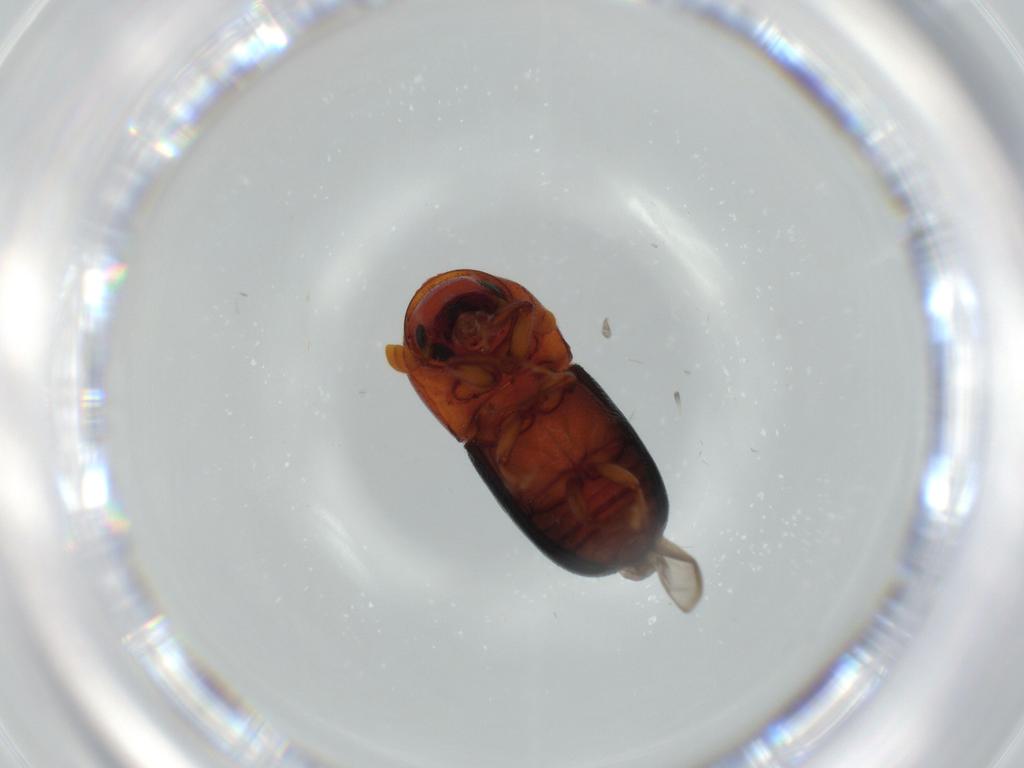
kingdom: Animalia
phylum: Arthropoda
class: Insecta
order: Coleoptera
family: Curculionidae
